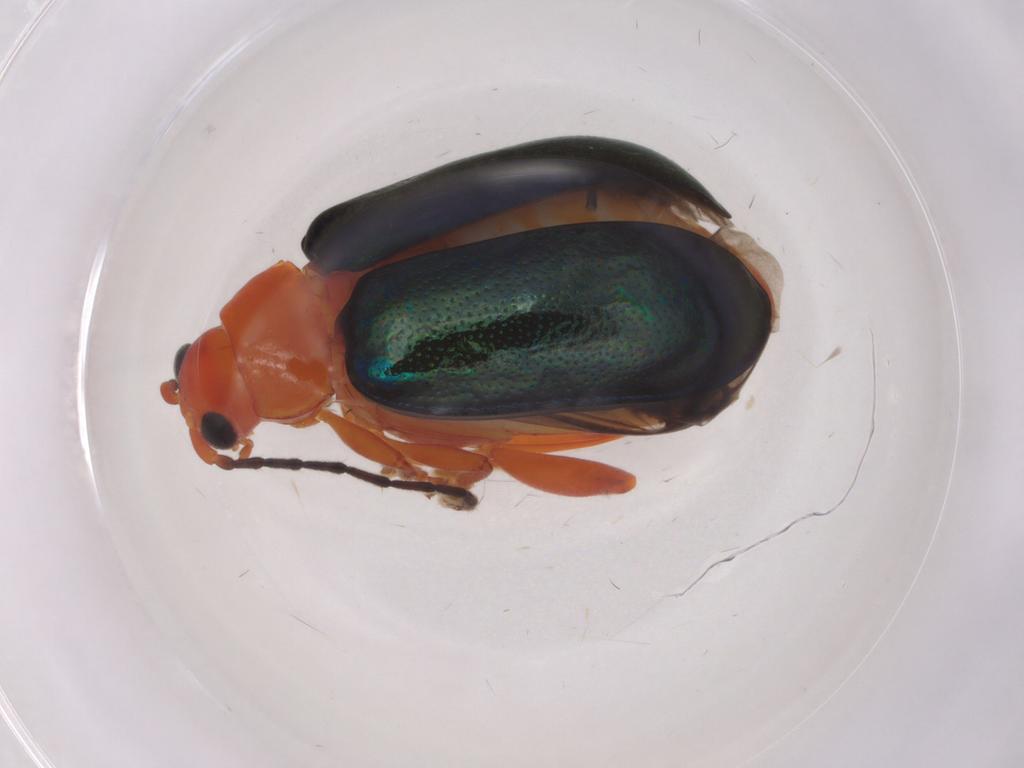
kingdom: Animalia
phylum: Arthropoda
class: Insecta
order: Coleoptera
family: Chrysomelidae
